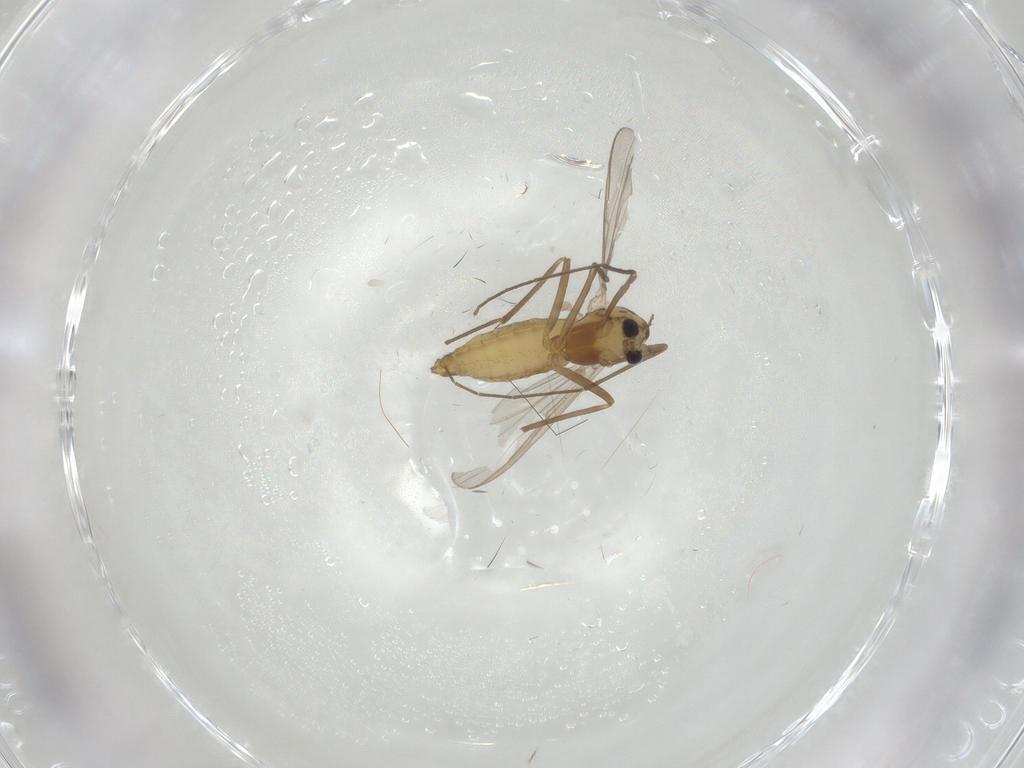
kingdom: Animalia
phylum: Arthropoda
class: Insecta
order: Diptera
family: Chironomidae
